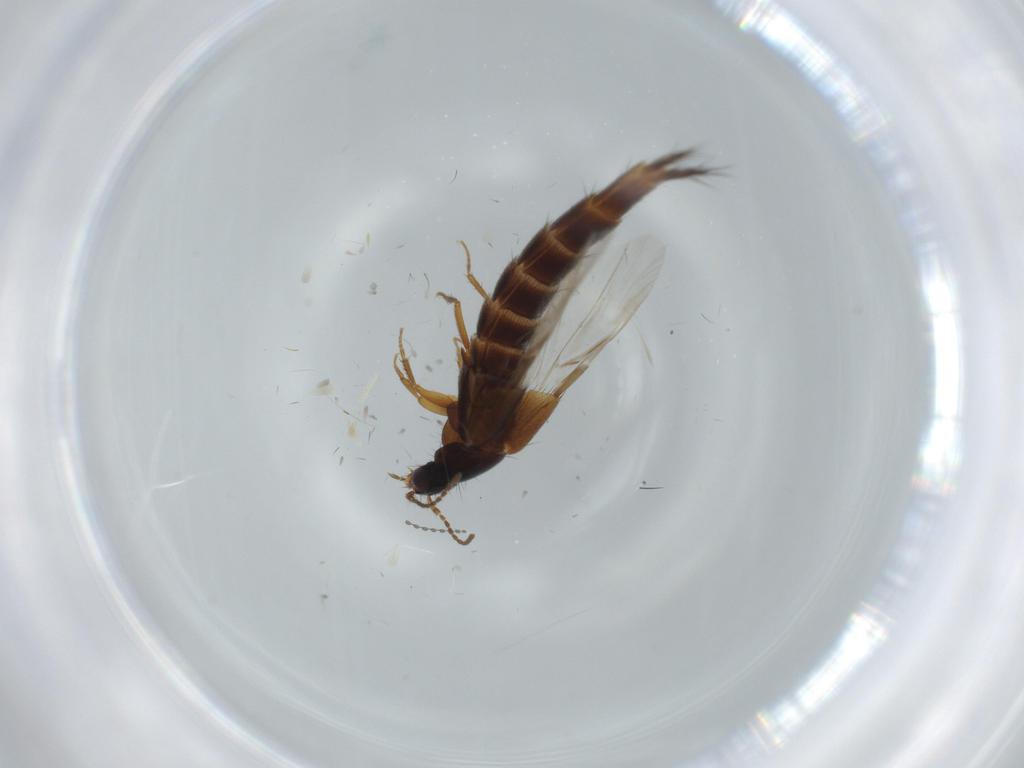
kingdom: Animalia
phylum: Arthropoda
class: Insecta
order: Coleoptera
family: Staphylinidae
